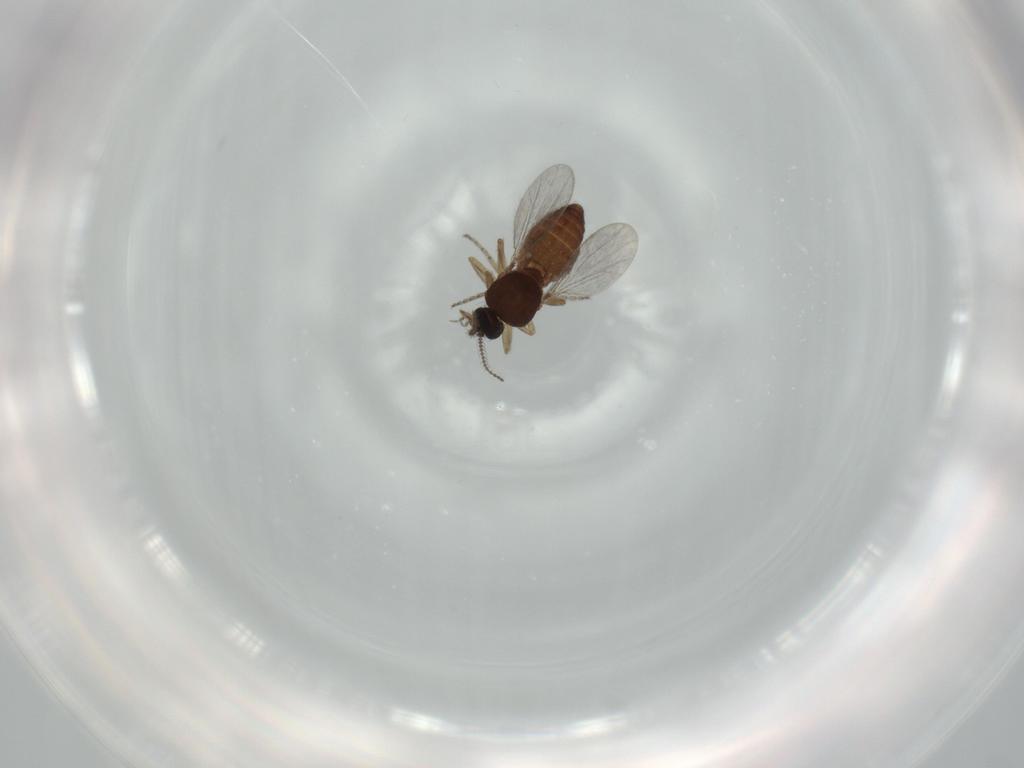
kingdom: Animalia
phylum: Arthropoda
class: Insecta
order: Diptera
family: Ceratopogonidae
